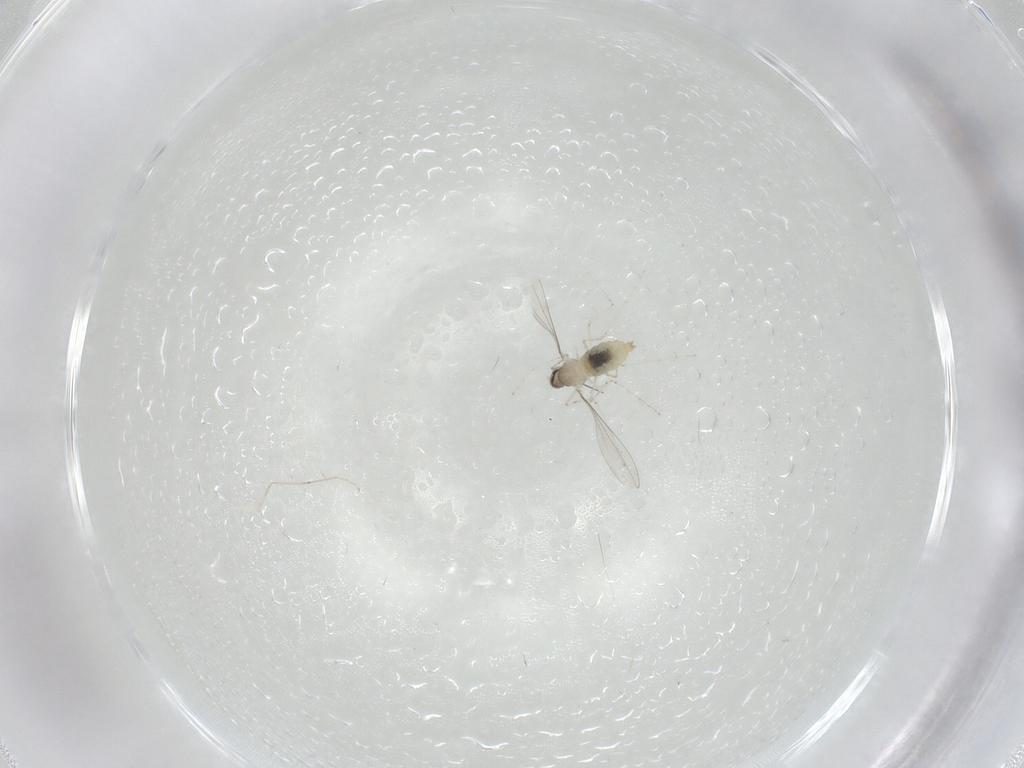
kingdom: Animalia
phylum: Arthropoda
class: Insecta
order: Diptera
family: Cecidomyiidae
